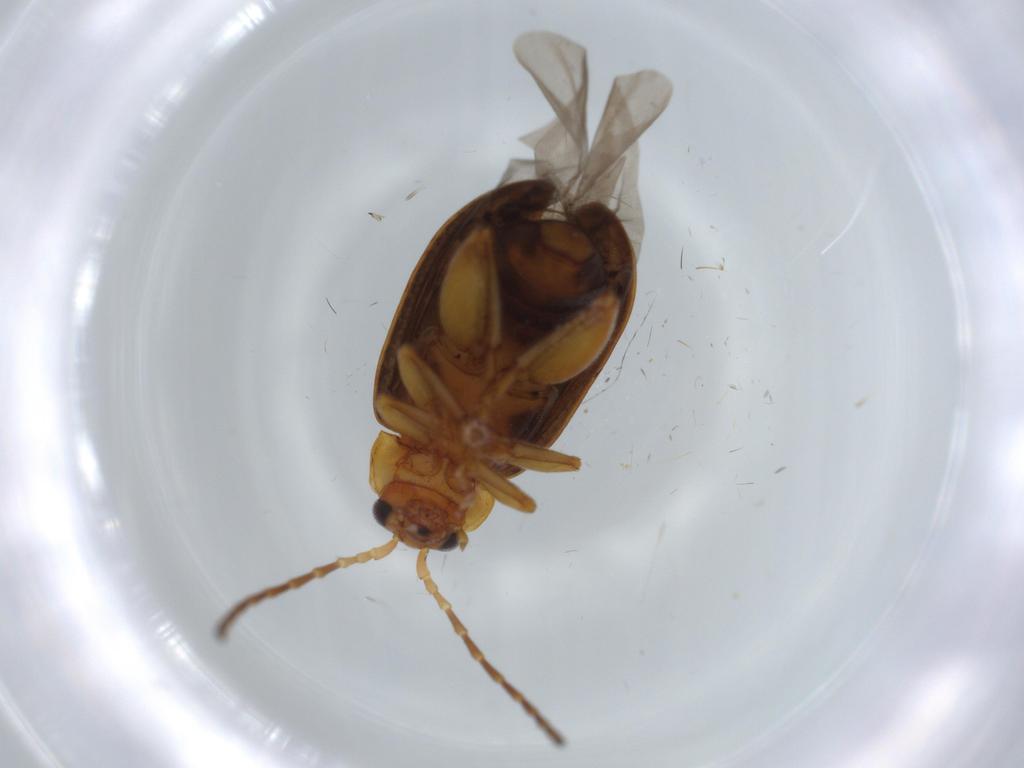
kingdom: Animalia
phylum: Arthropoda
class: Insecta
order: Coleoptera
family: Chrysomelidae
